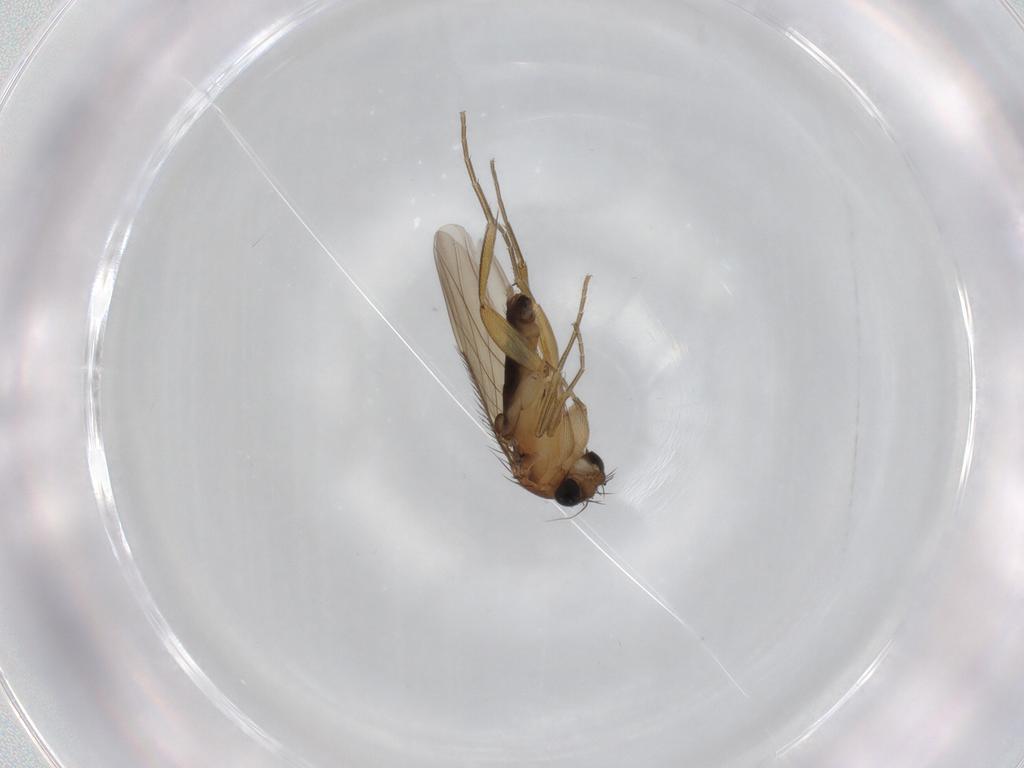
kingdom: Animalia
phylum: Arthropoda
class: Insecta
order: Diptera
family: Phoridae
